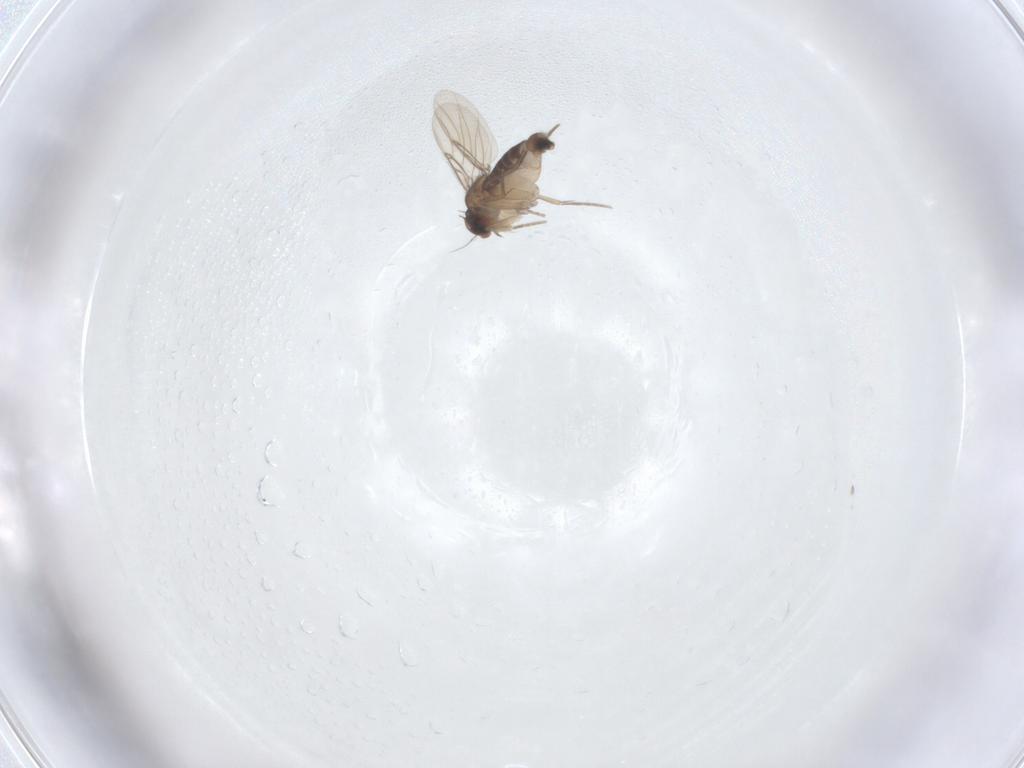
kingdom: Animalia
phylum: Arthropoda
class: Insecta
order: Diptera
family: Phoridae
